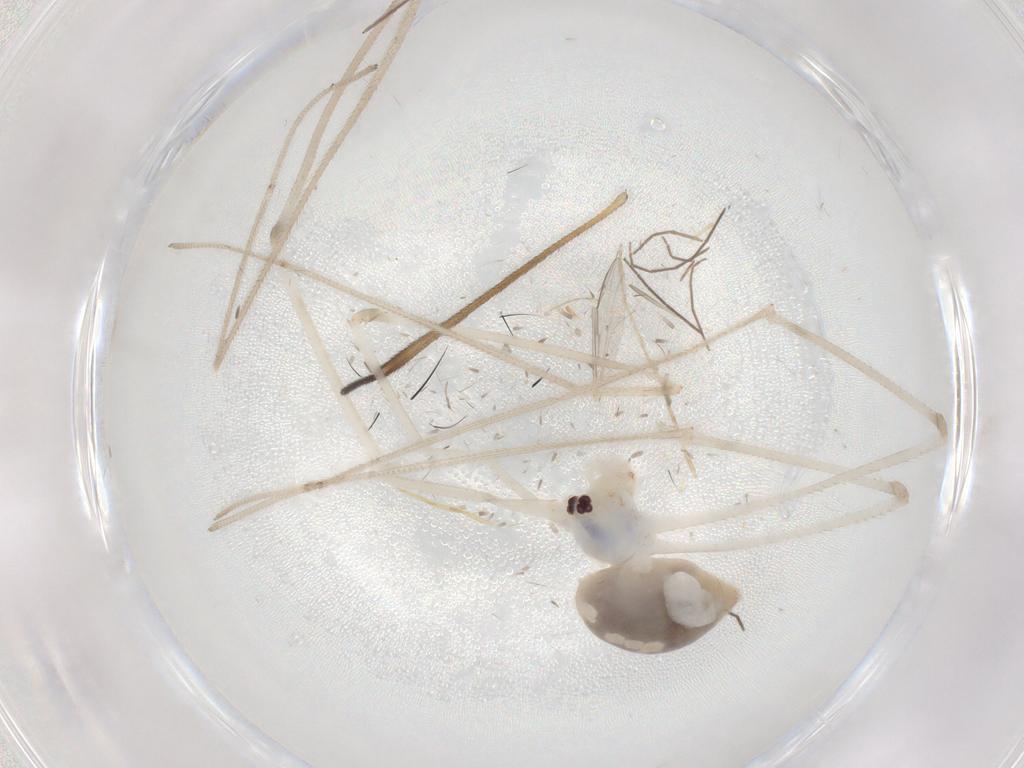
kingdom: Animalia
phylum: Arthropoda
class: Arachnida
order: Araneae
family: Pholcidae
